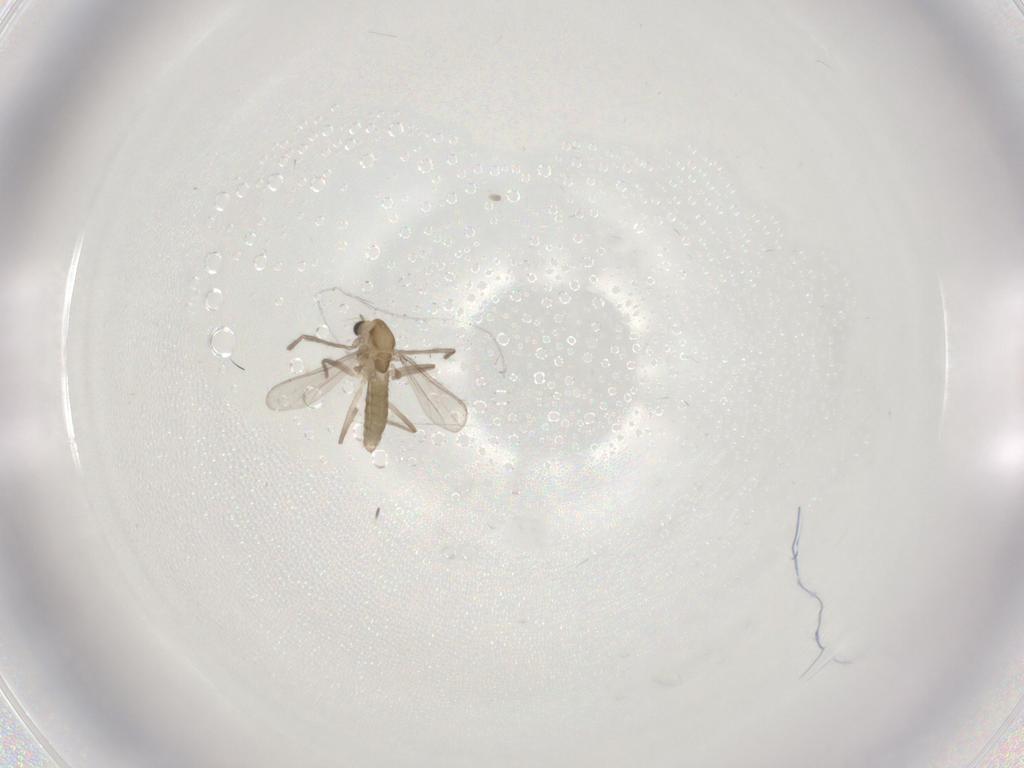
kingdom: Animalia
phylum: Arthropoda
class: Insecta
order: Diptera
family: Chironomidae
